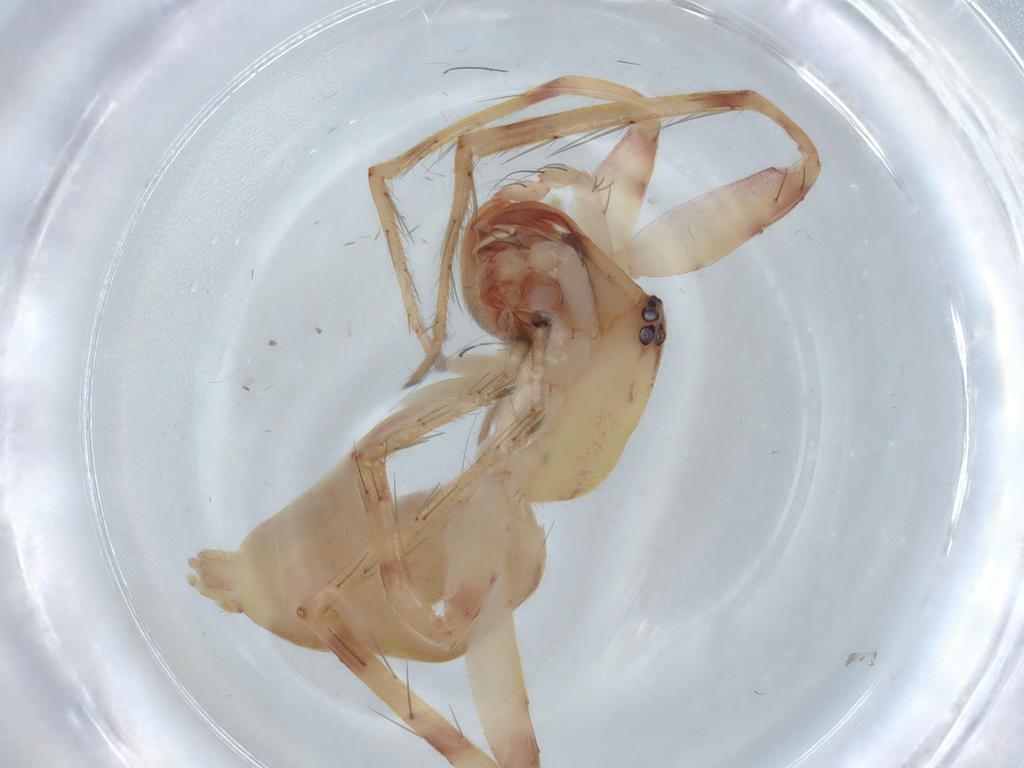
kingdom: Animalia
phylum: Arthropoda
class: Arachnida
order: Araneae
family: Anyphaenidae
